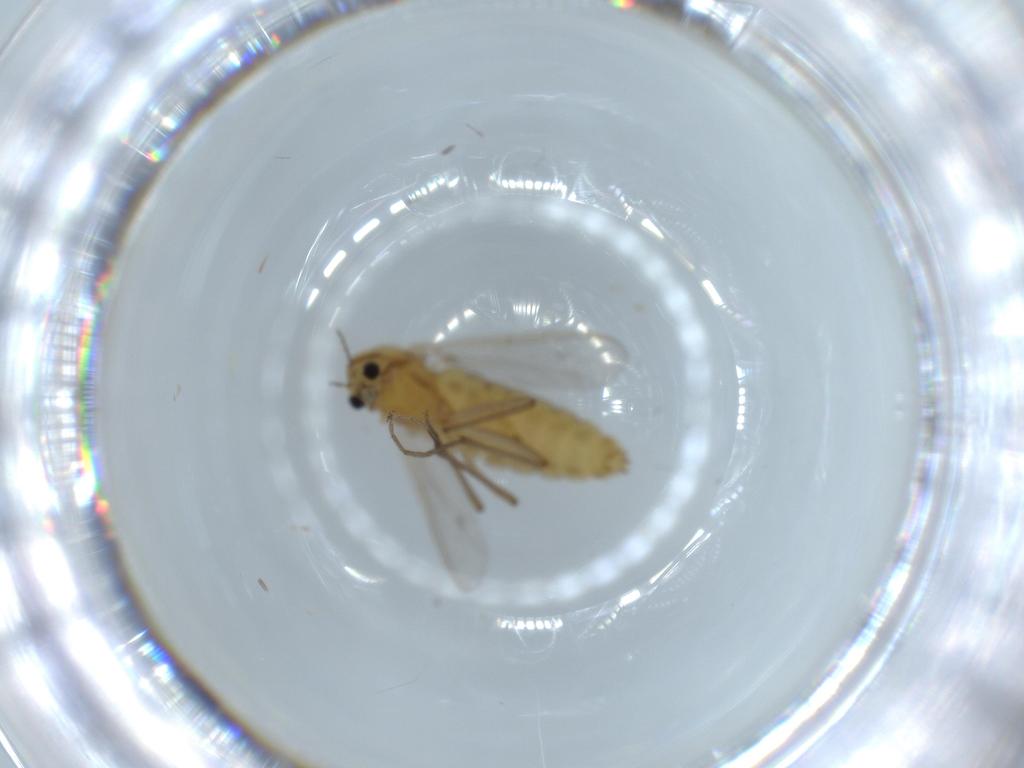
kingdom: Animalia
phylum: Arthropoda
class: Insecta
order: Diptera
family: Chironomidae
